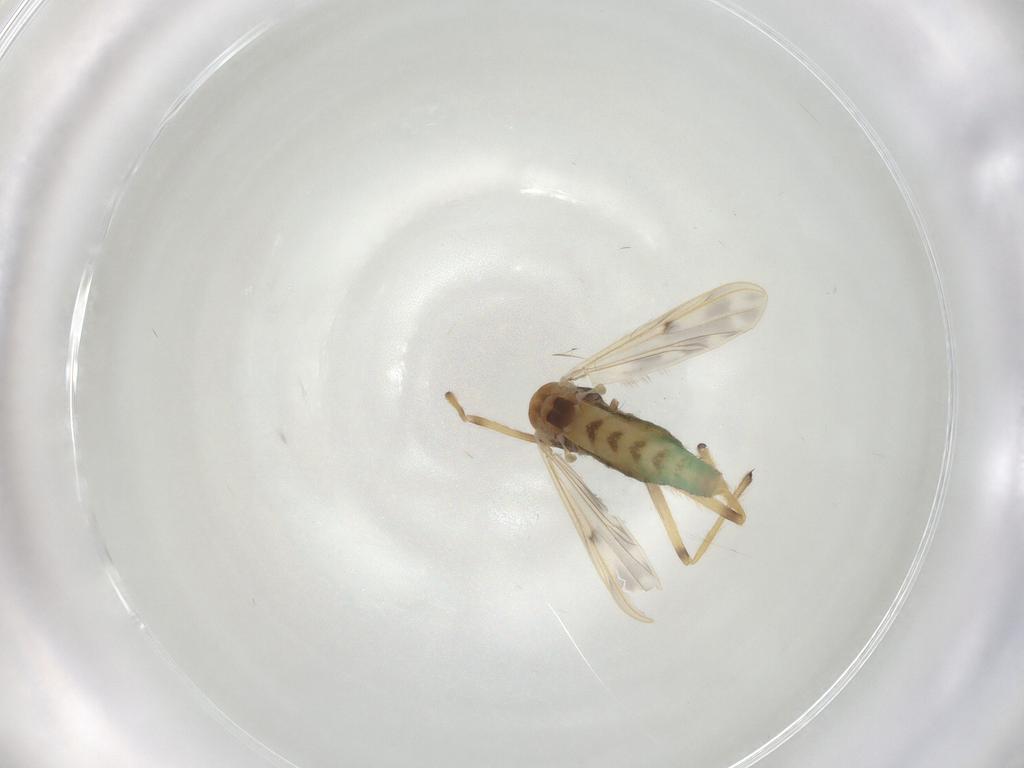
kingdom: Animalia
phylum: Arthropoda
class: Insecta
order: Diptera
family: Chironomidae
